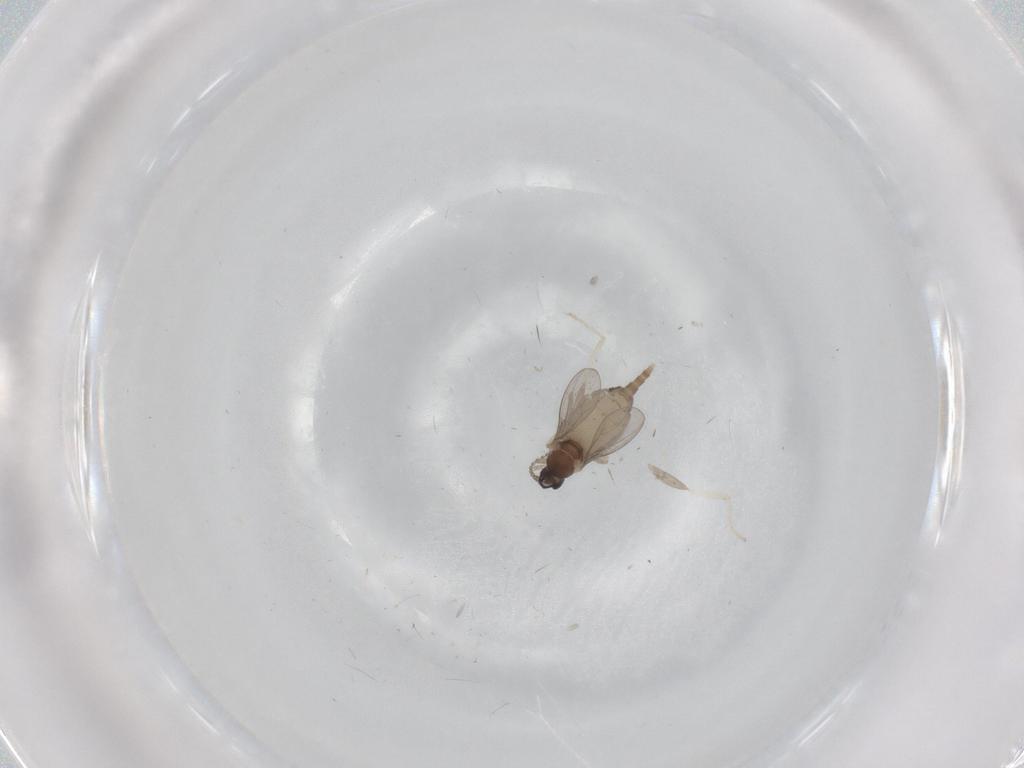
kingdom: Animalia
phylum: Arthropoda
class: Insecta
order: Diptera
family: Cecidomyiidae
